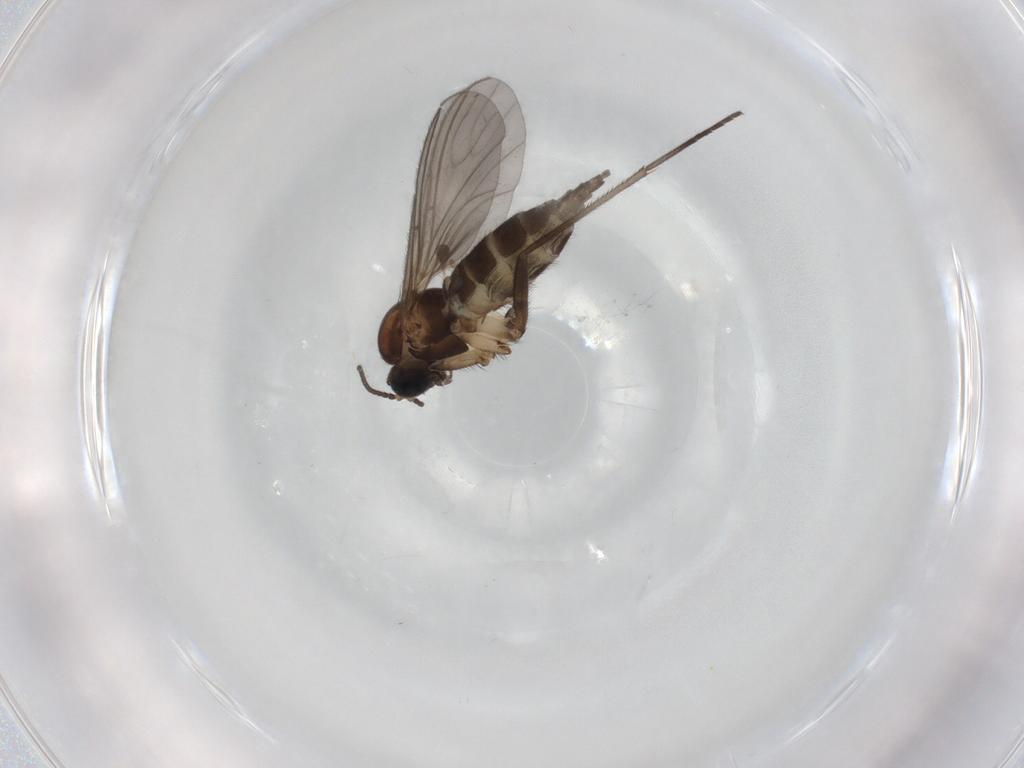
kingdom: Animalia
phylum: Arthropoda
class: Insecta
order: Diptera
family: Sciaridae
